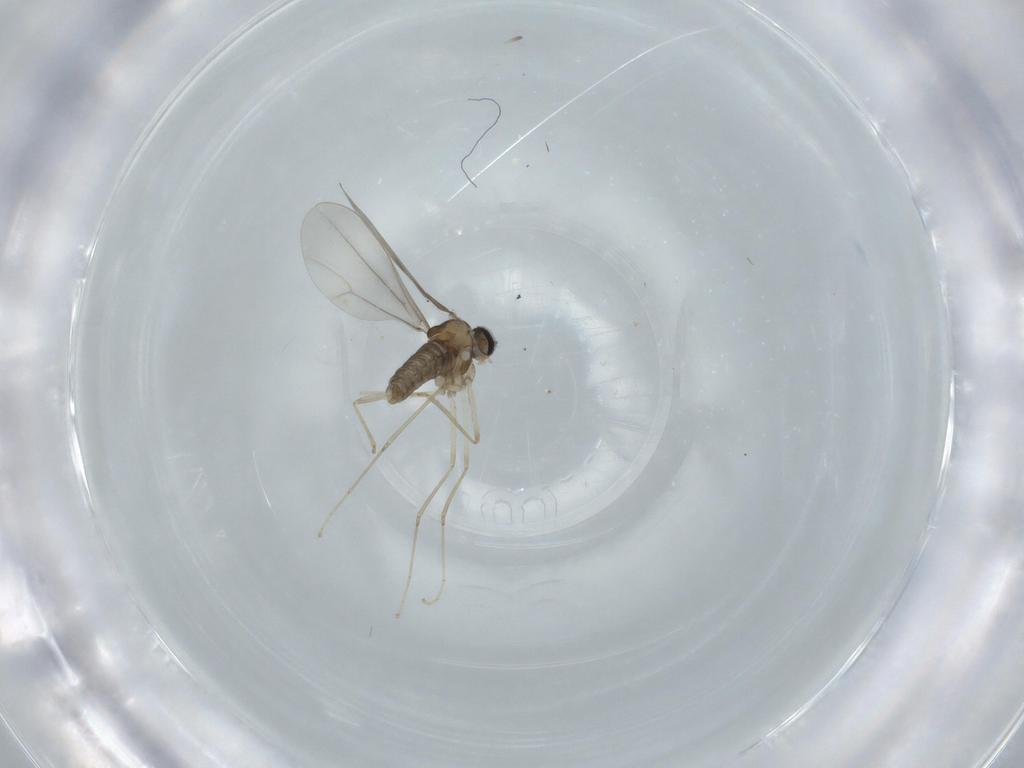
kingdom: Animalia
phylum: Arthropoda
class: Insecta
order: Diptera
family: Cecidomyiidae
